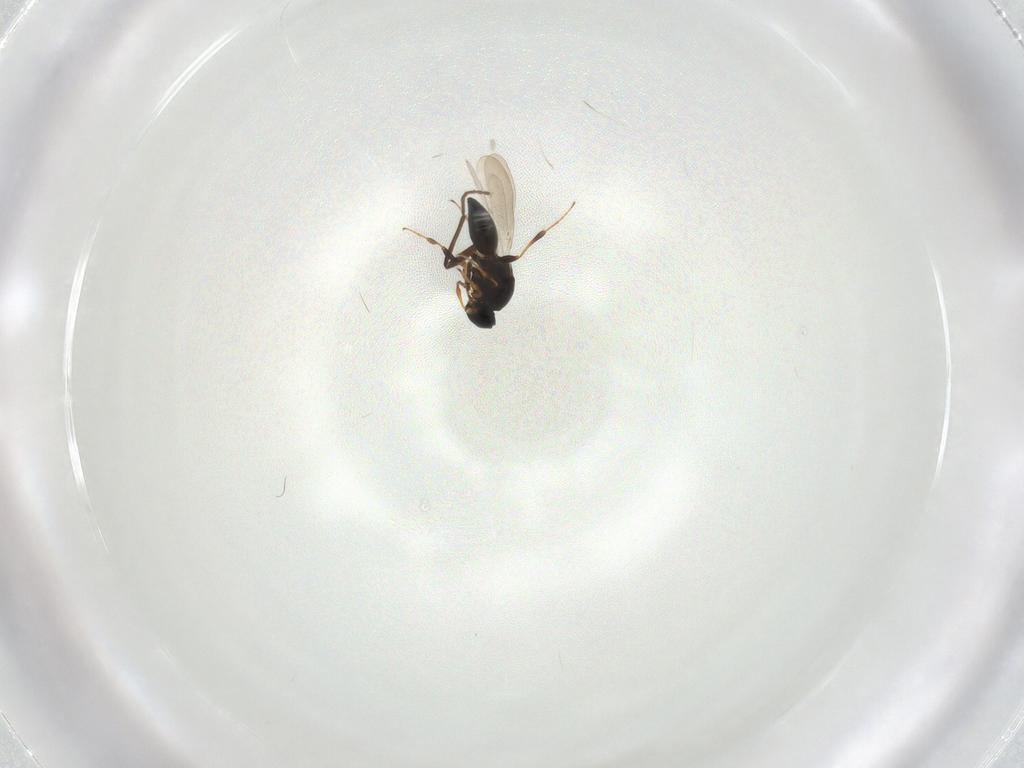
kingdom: Animalia
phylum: Arthropoda
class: Insecta
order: Hymenoptera
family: Platygastridae
